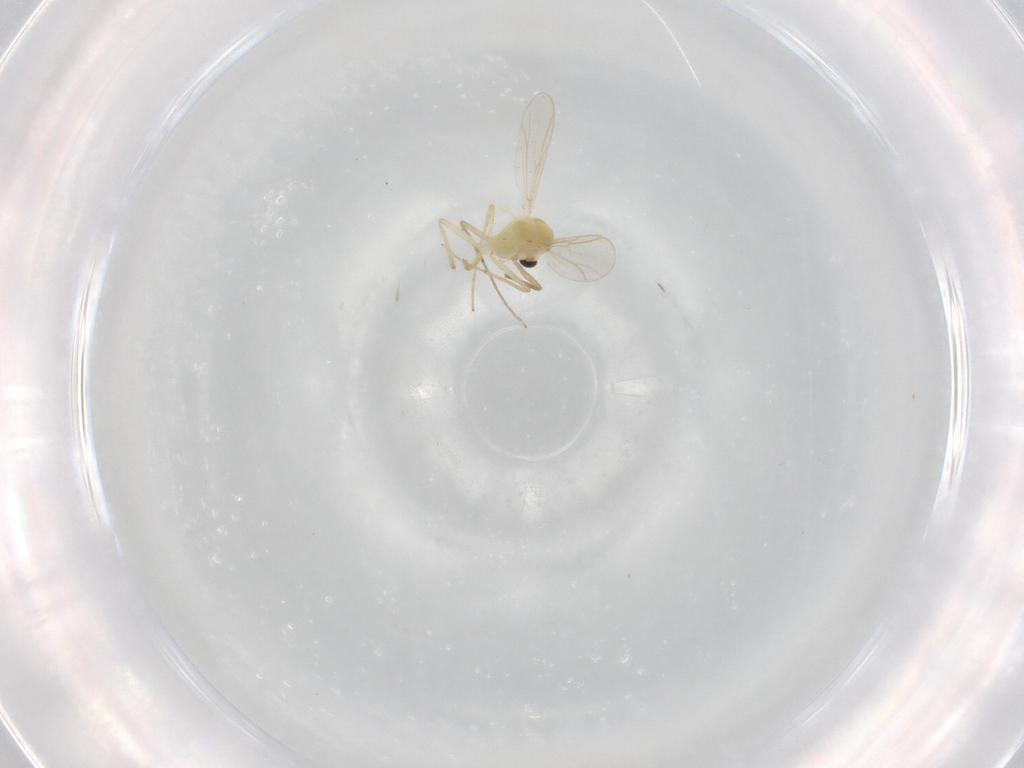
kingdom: Animalia
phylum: Arthropoda
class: Insecta
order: Diptera
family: Chironomidae
